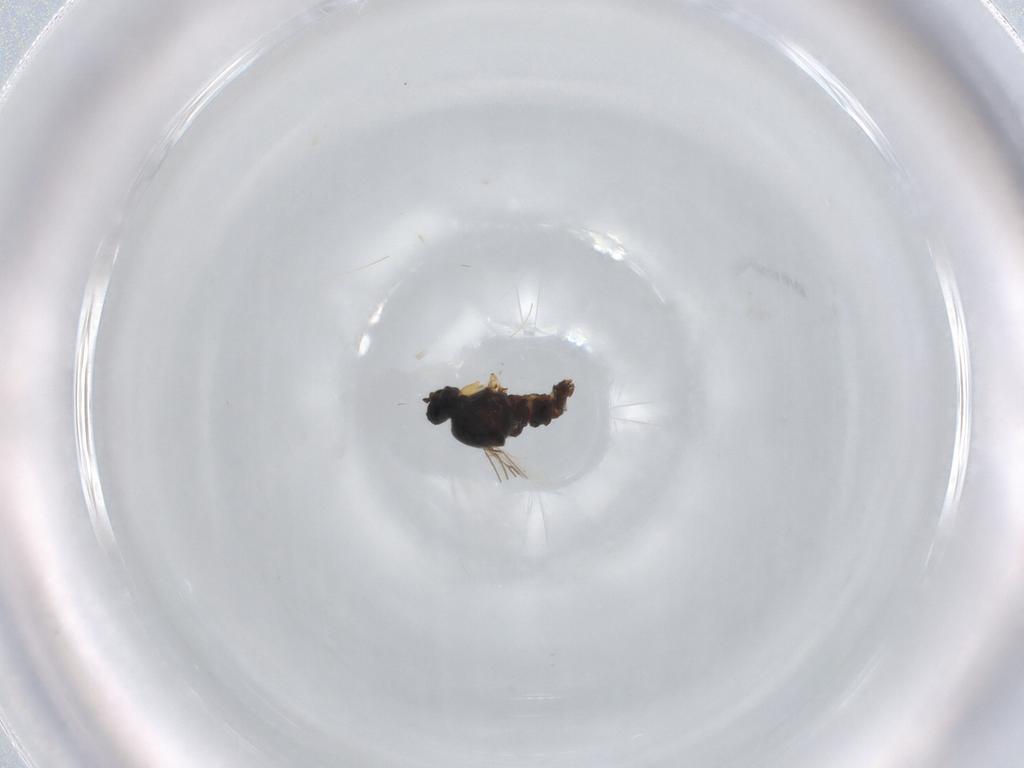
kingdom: Animalia
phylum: Arthropoda
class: Insecta
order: Diptera
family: Hybotidae
